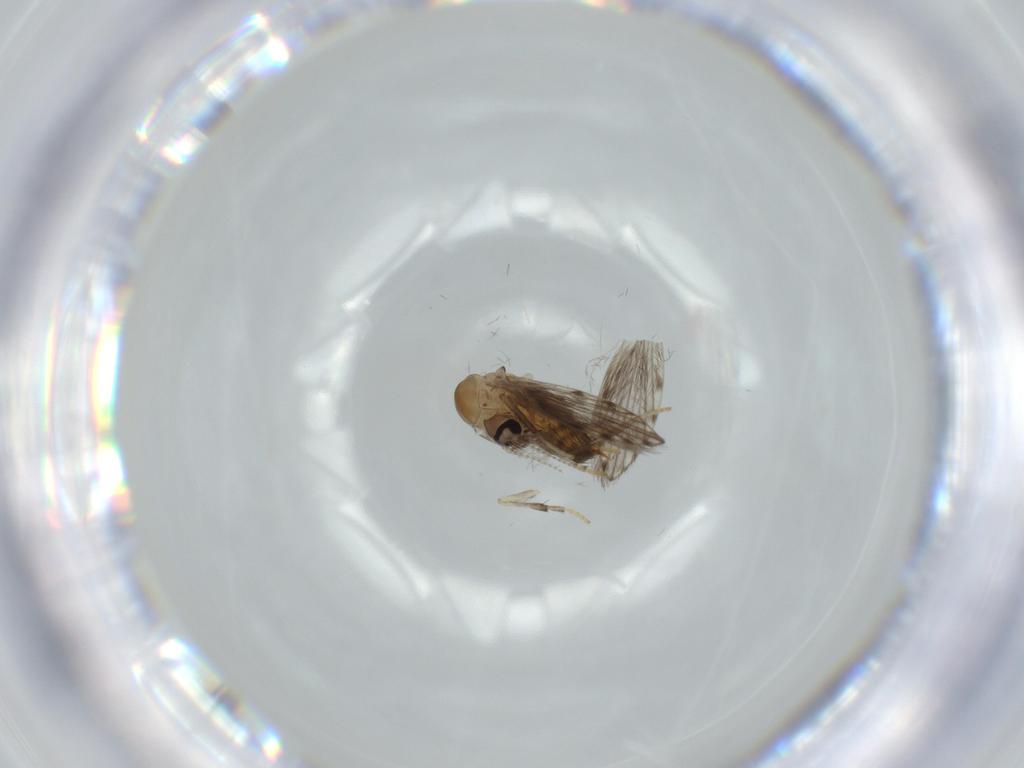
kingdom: Animalia
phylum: Arthropoda
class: Insecta
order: Diptera
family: Psychodidae
